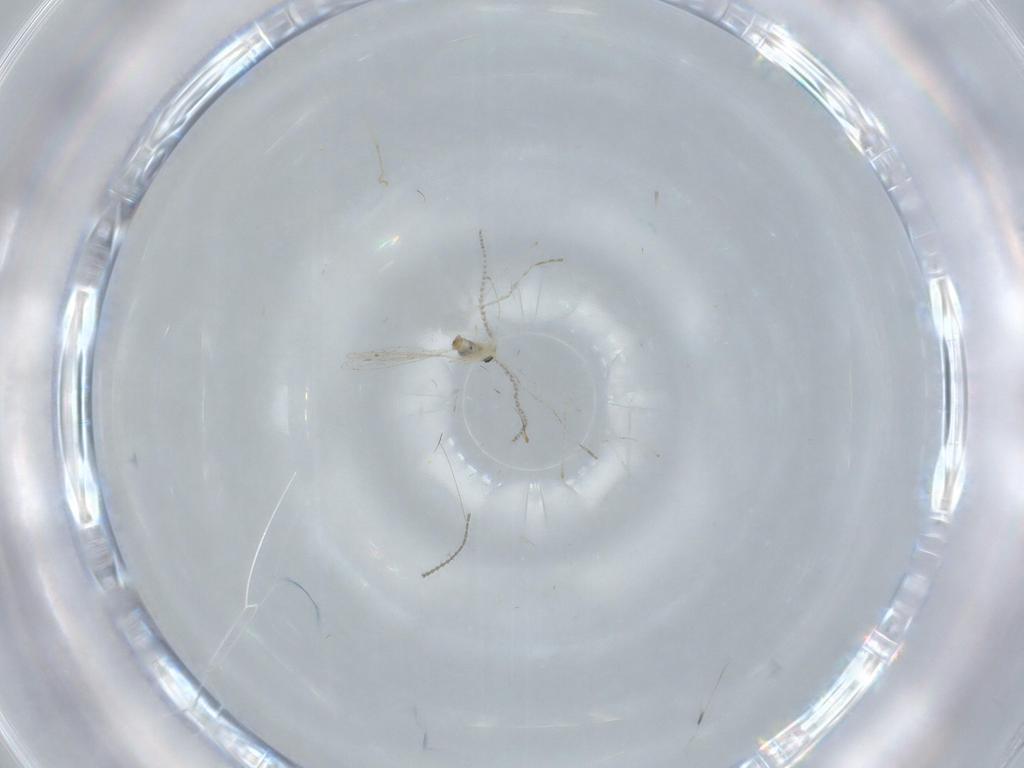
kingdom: Animalia
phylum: Arthropoda
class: Insecta
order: Diptera
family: Ceratopogonidae
